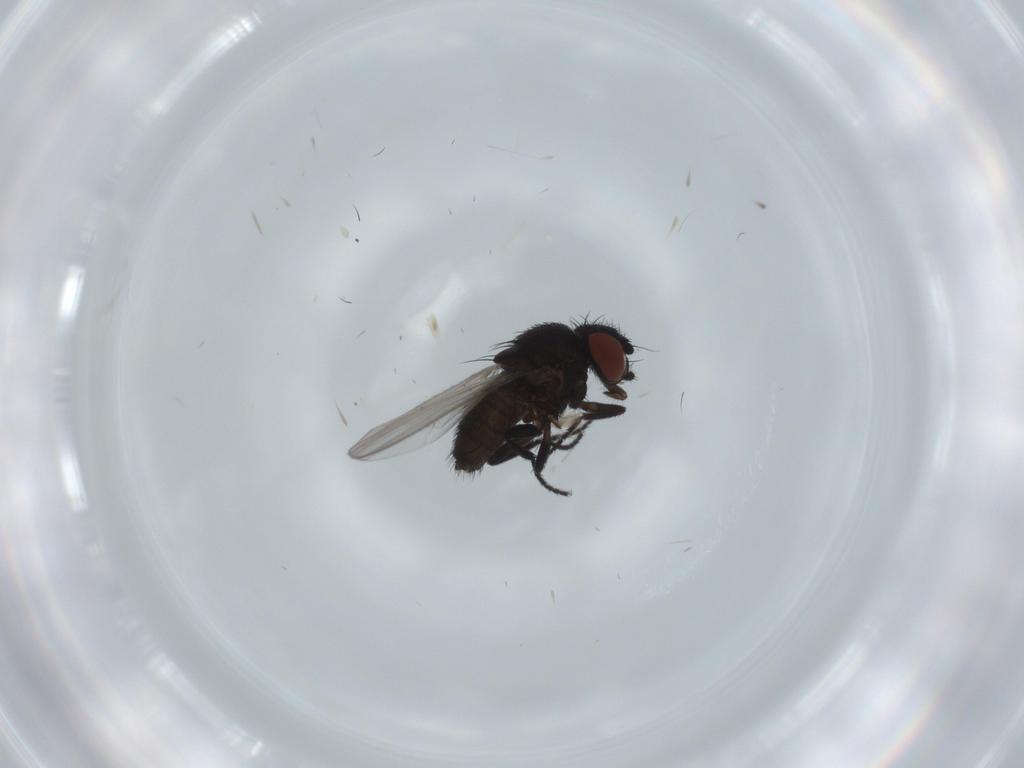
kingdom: Animalia
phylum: Arthropoda
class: Insecta
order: Diptera
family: Milichiidae
